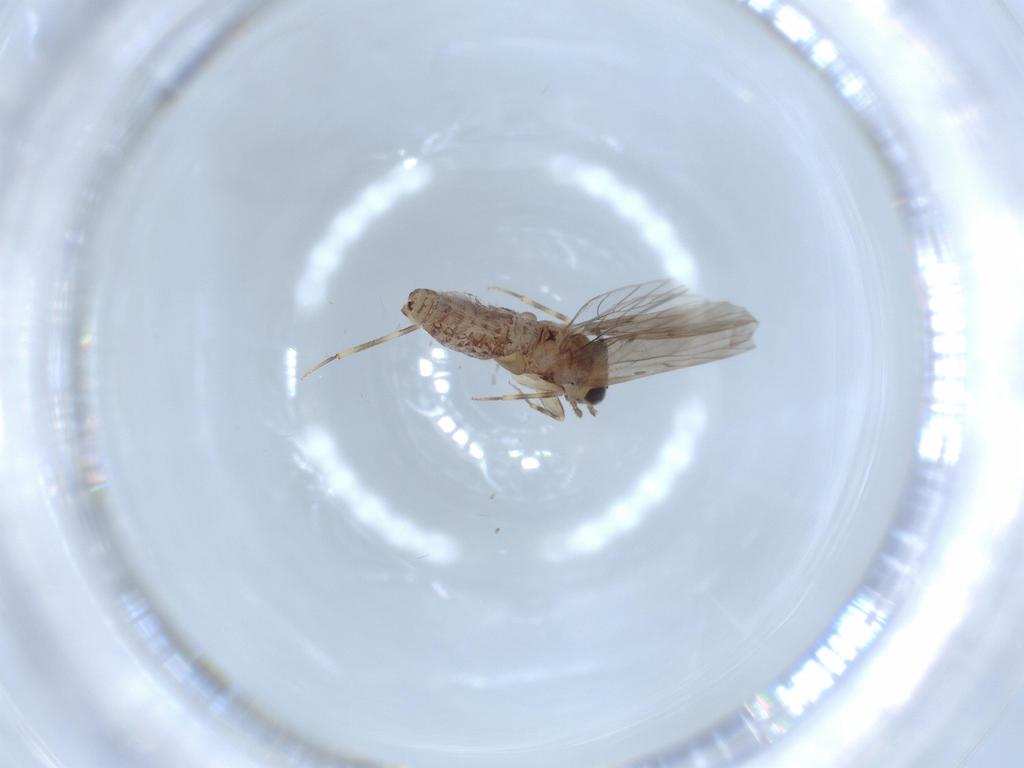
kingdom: Animalia
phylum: Arthropoda
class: Insecta
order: Psocodea
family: Lepidopsocidae
